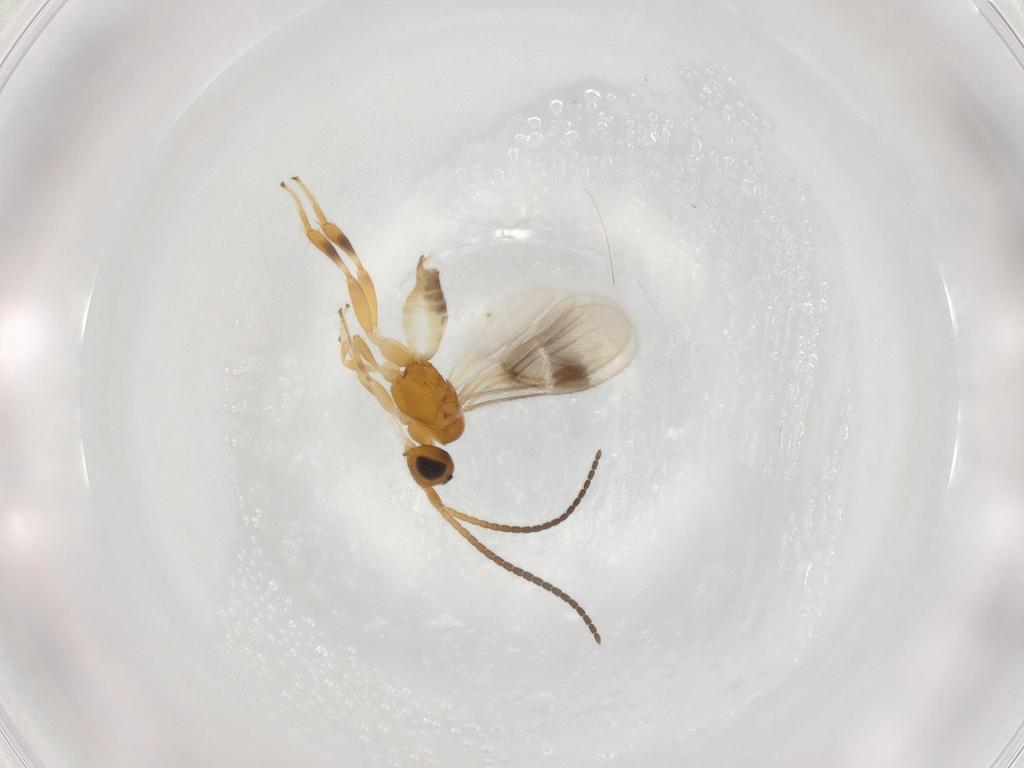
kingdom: Animalia
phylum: Arthropoda
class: Insecta
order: Hymenoptera
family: Braconidae
